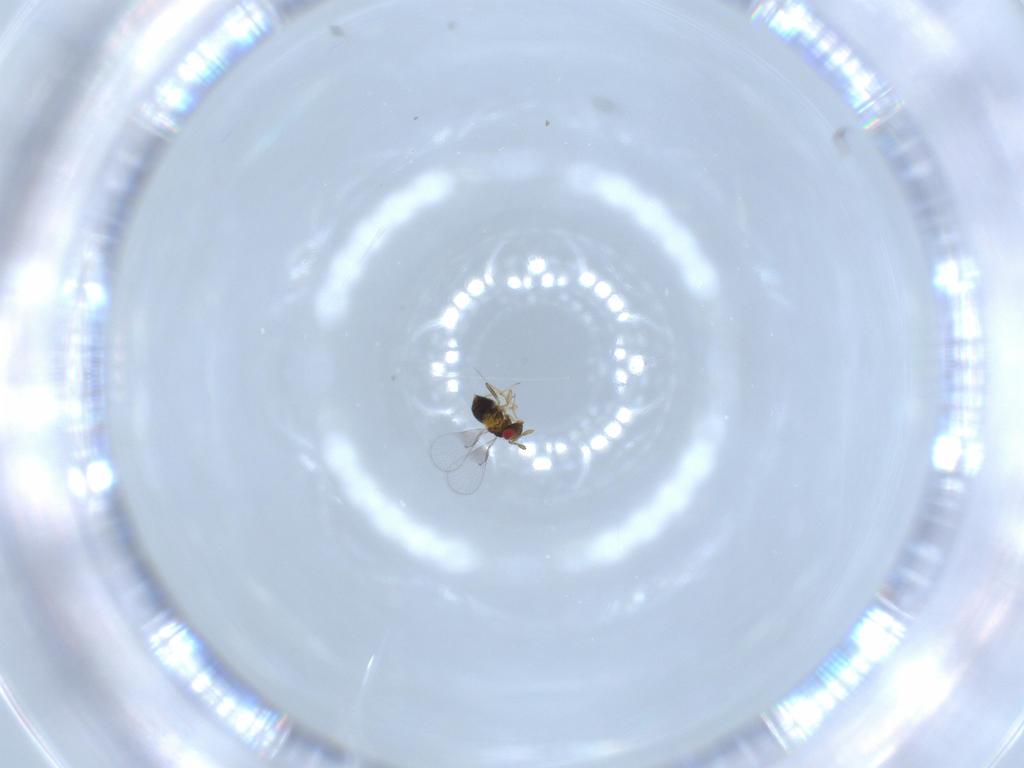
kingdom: Animalia
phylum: Arthropoda
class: Insecta
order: Hymenoptera
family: Trichogrammatidae
